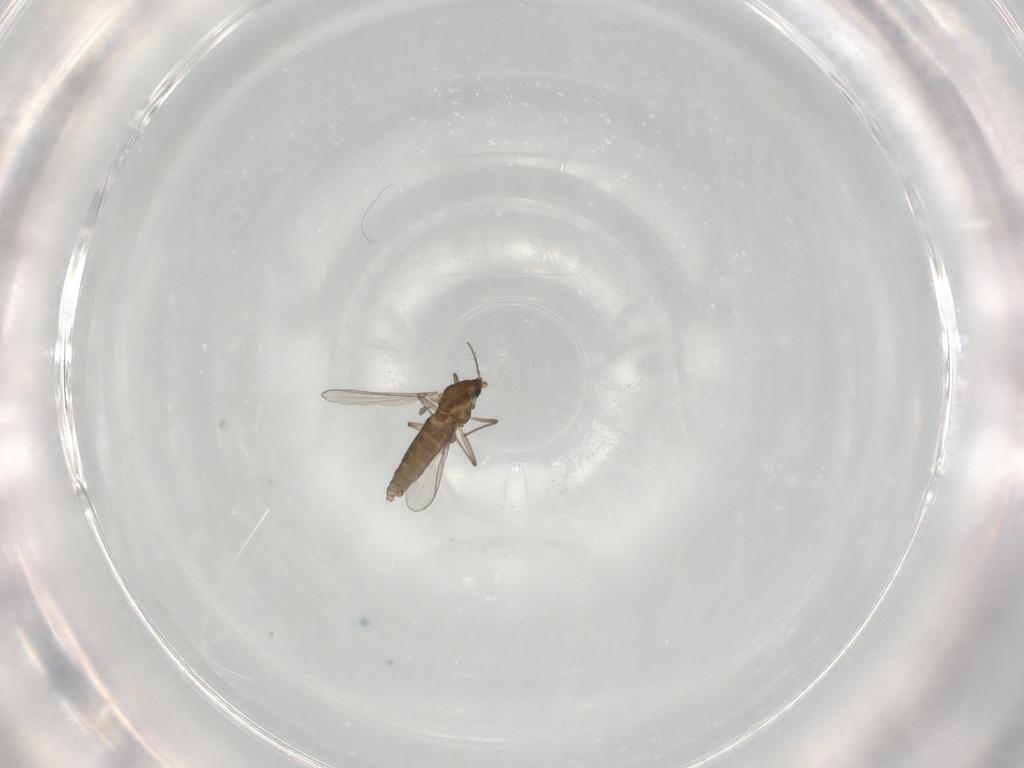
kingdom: Animalia
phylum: Arthropoda
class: Insecta
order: Diptera
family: Chironomidae
